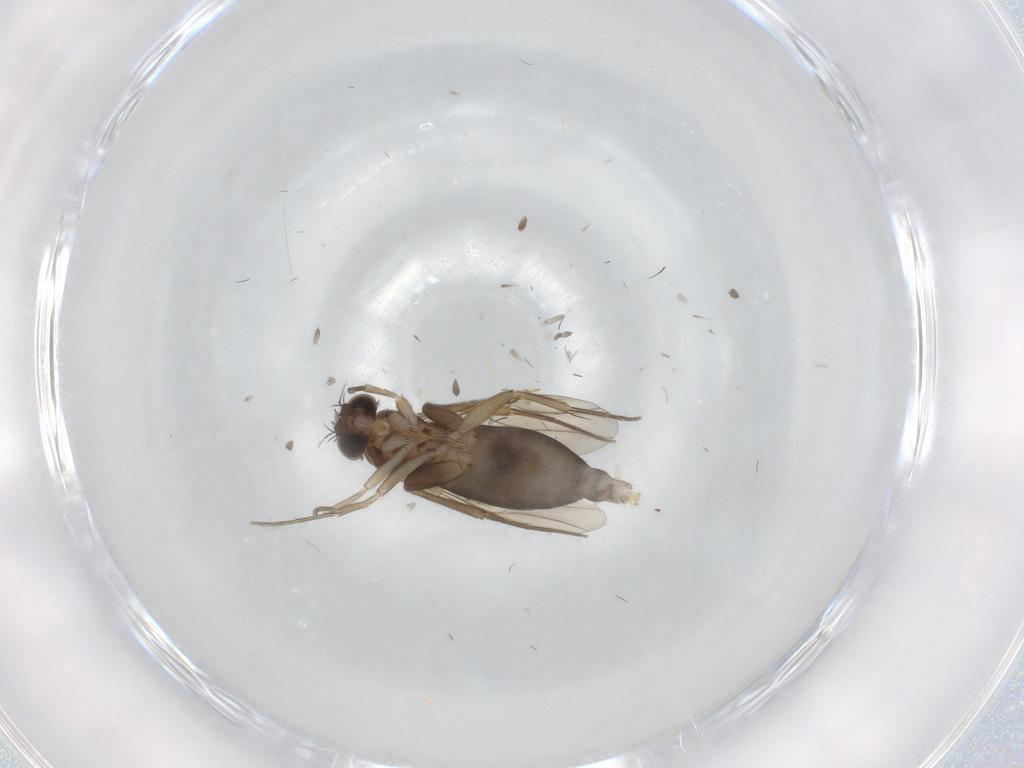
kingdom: Animalia
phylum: Arthropoda
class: Insecta
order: Diptera
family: Phoridae
